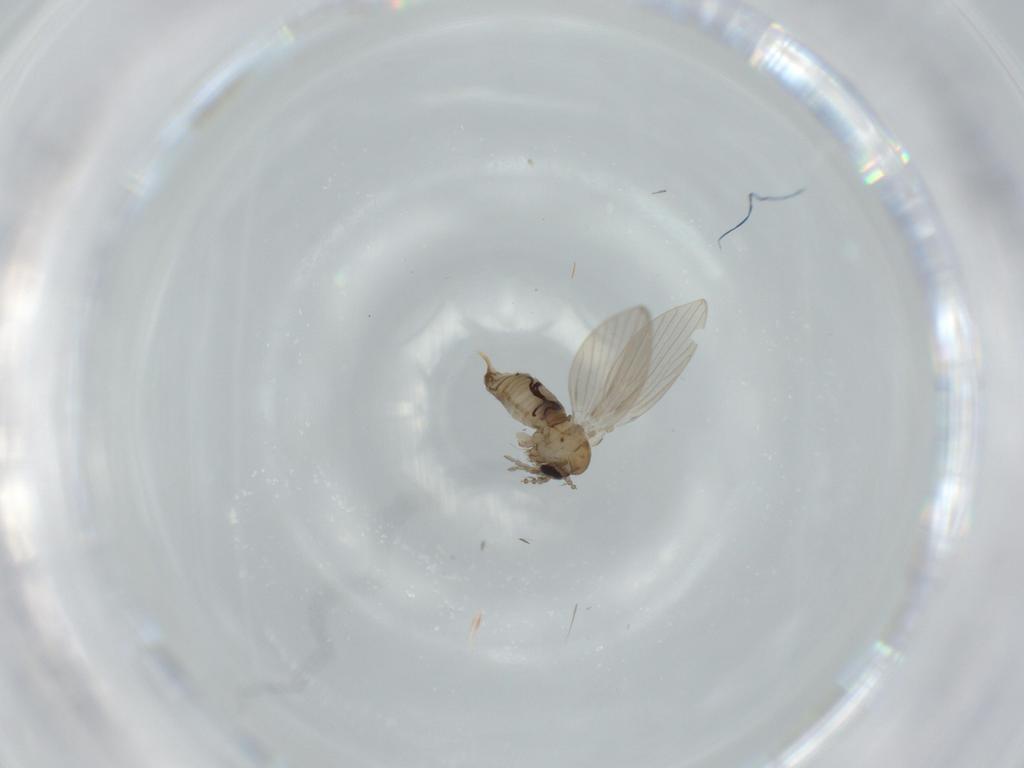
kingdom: Animalia
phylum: Arthropoda
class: Insecta
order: Diptera
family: Psychodidae
